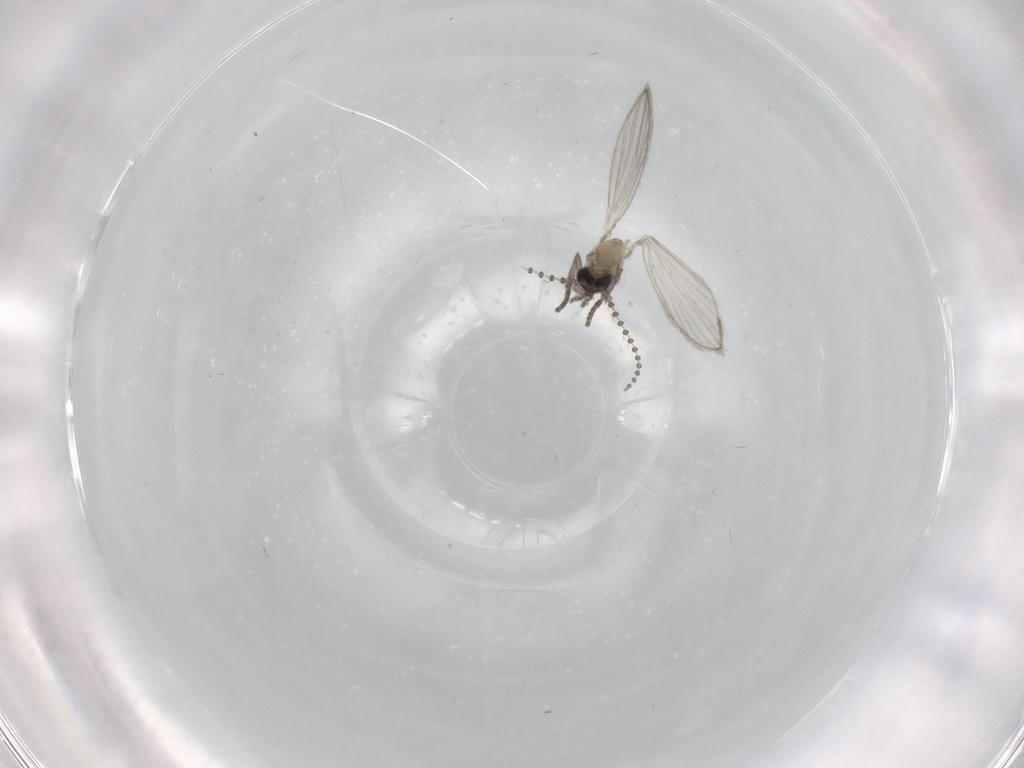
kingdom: Animalia
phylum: Arthropoda
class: Insecta
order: Diptera
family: Psychodidae
